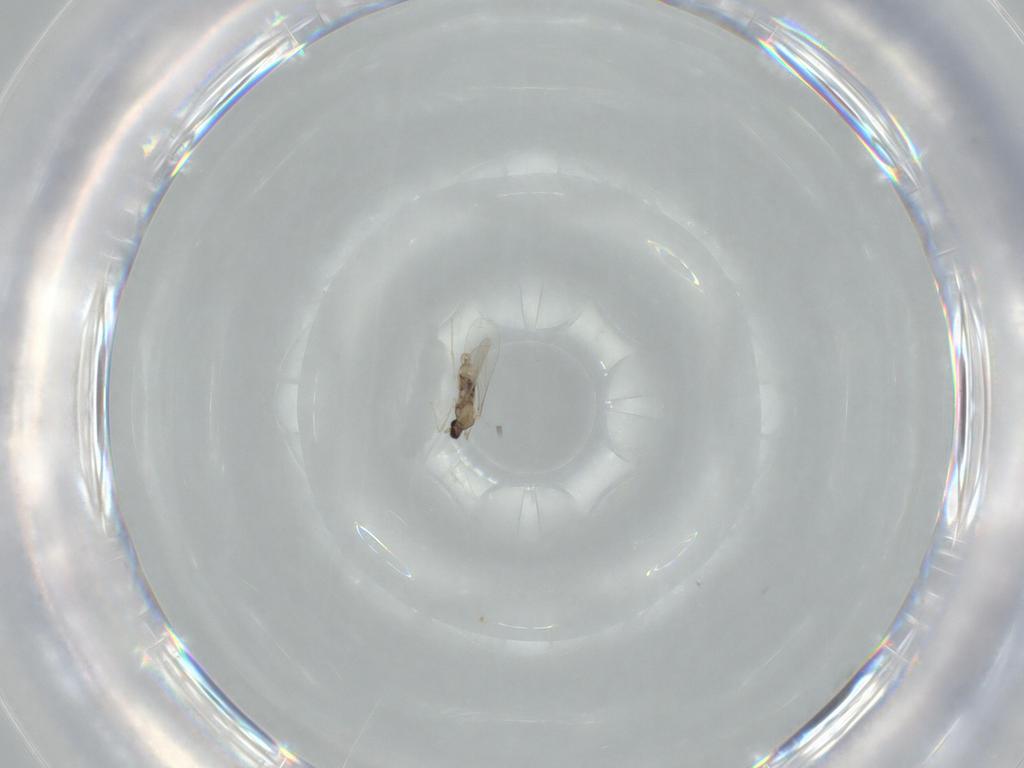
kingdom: Animalia
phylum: Arthropoda
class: Insecta
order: Diptera
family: Cecidomyiidae
